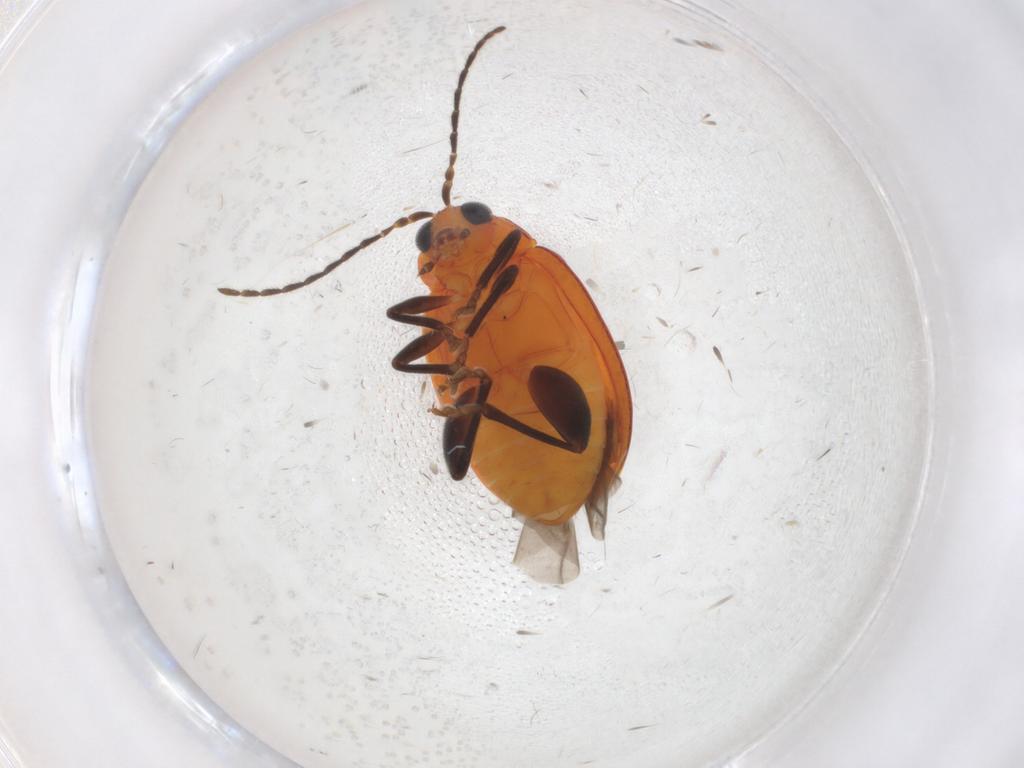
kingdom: Animalia
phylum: Arthropoda
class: Insecta
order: Coleoptera
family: Chrysomelidae
